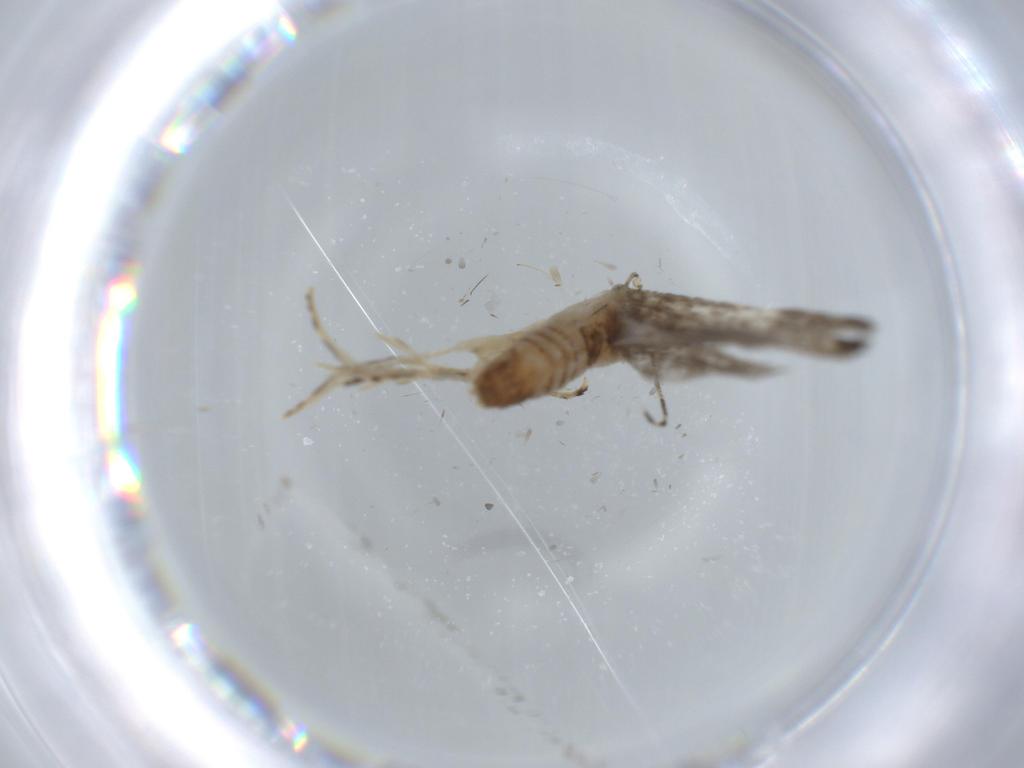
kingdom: Animalia
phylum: Arthropoda
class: Insecta
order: Lepidoptera
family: Tineidae
